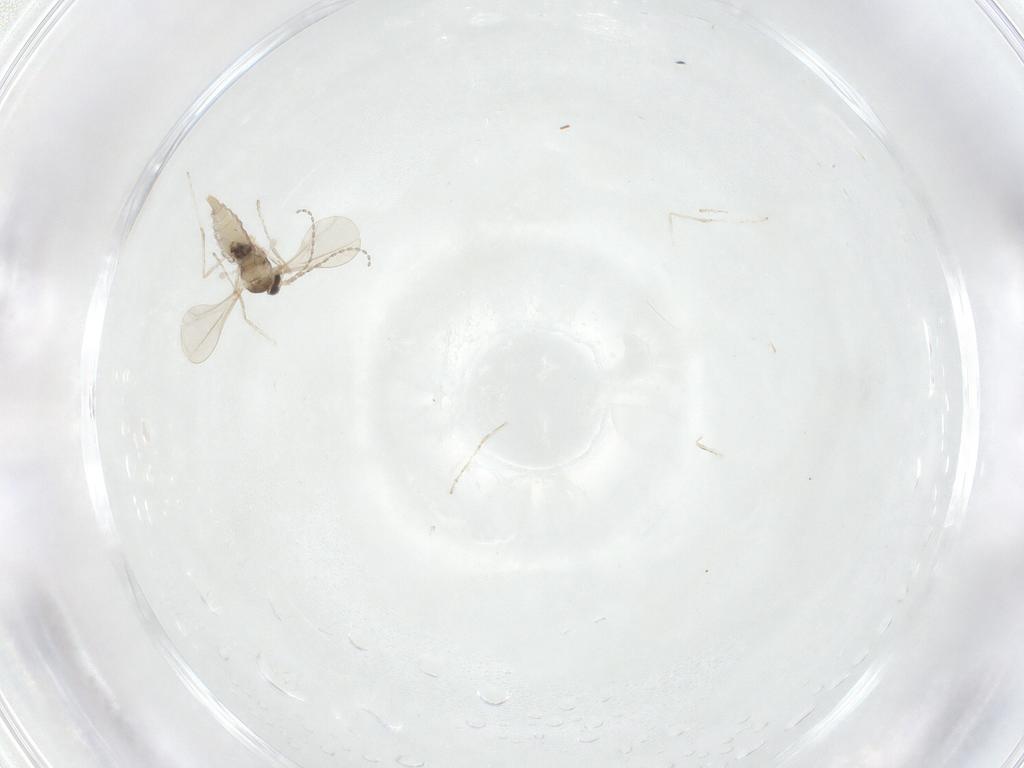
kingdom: Animalia
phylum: Arthropoda
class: Insecta
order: Diptera
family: Cecidomyiidae
